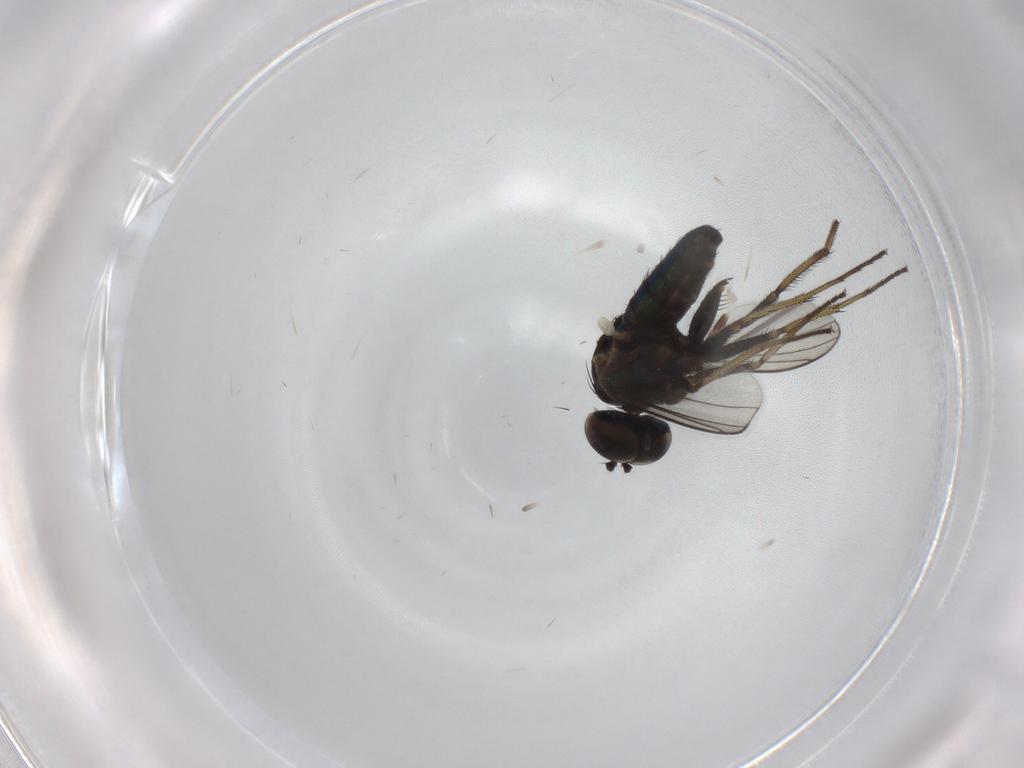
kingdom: Animalia
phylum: Arthropoda
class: Insecta
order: Diptera
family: Dolichopodidae
